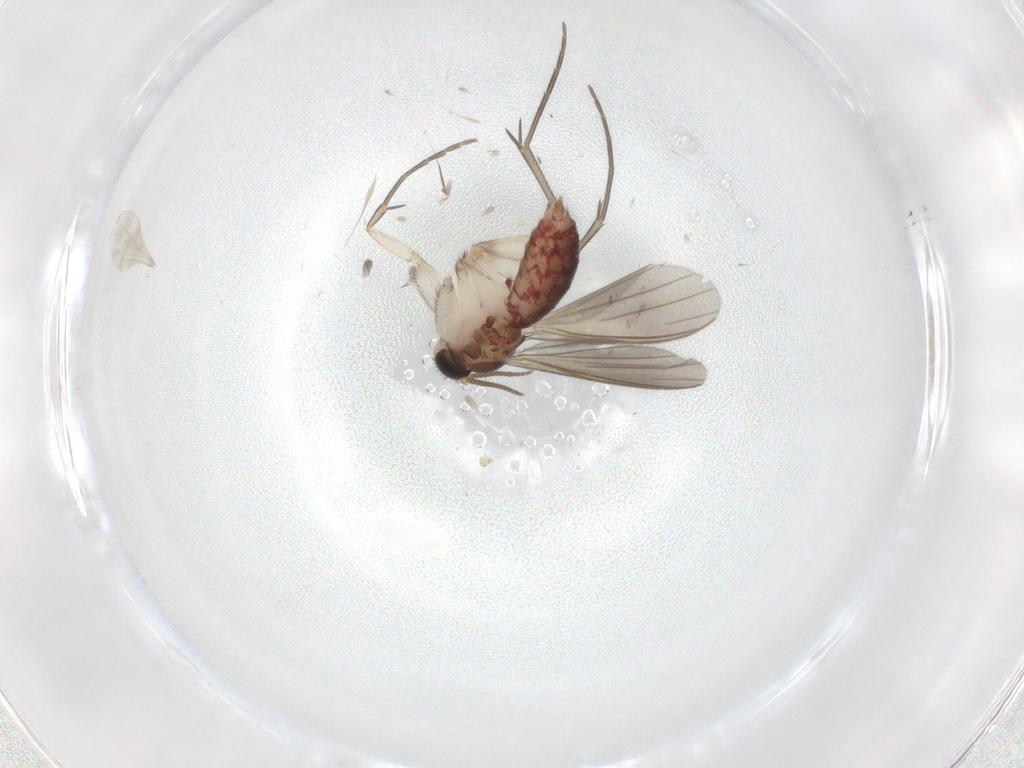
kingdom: Animalia
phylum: Arthropoda
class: Insecta
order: Diptera
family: Mycetophilidae
